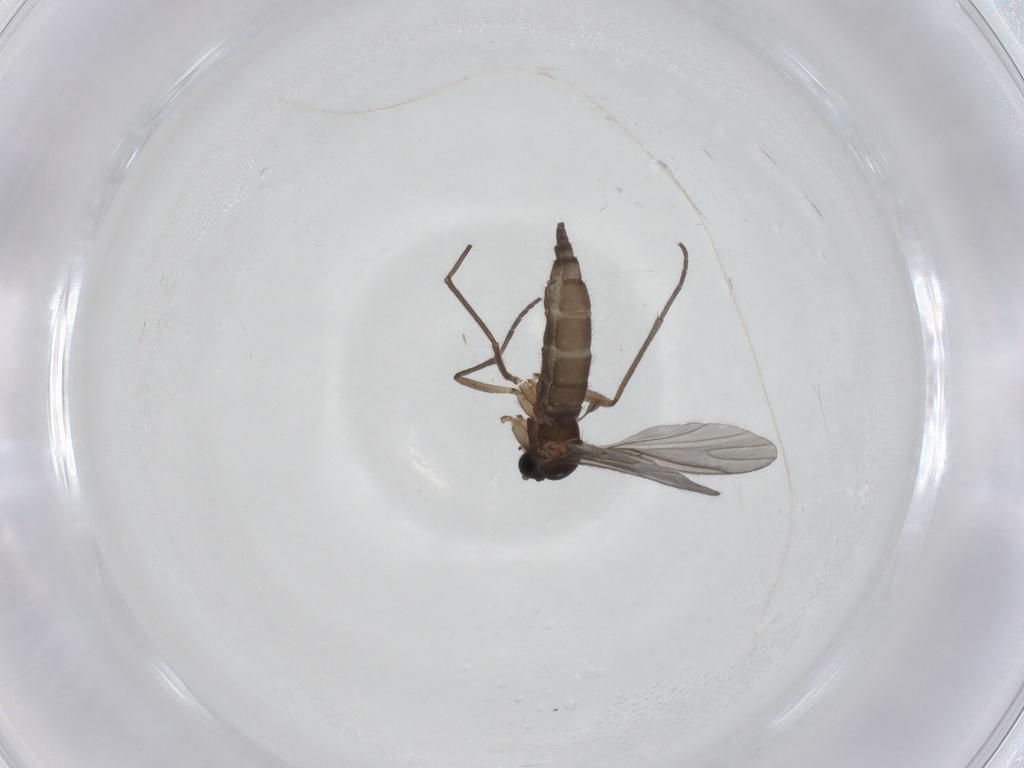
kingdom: Animalia
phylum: Arthropoda
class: Insecta
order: Diptera
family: Sciaridae
